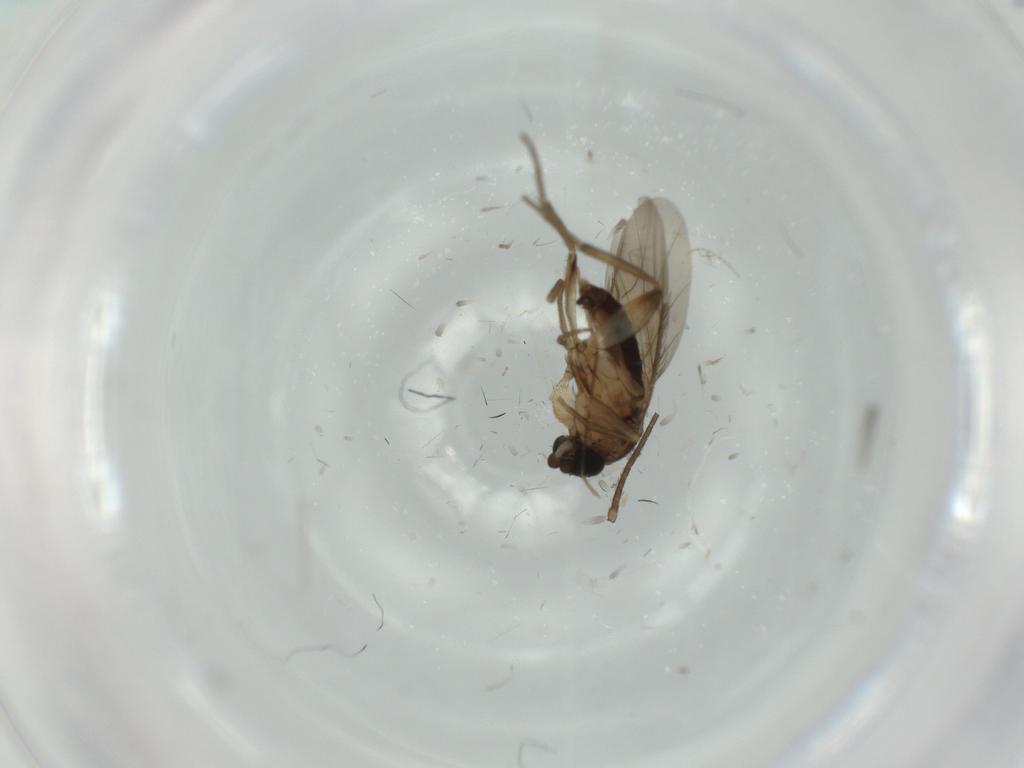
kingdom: Animalia
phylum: Arthropoda
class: Insecta
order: Diptera
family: Phoridae
